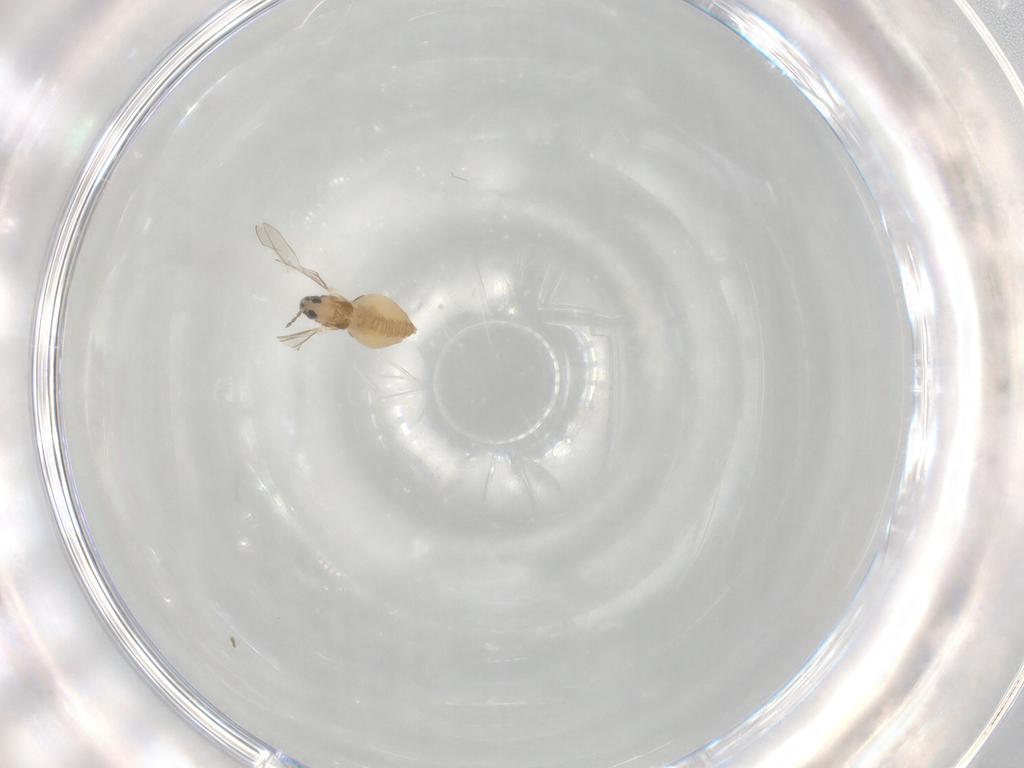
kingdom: Animalia
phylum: Arthropoda
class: Insecta
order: Diptera
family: Cecidomyiidae
